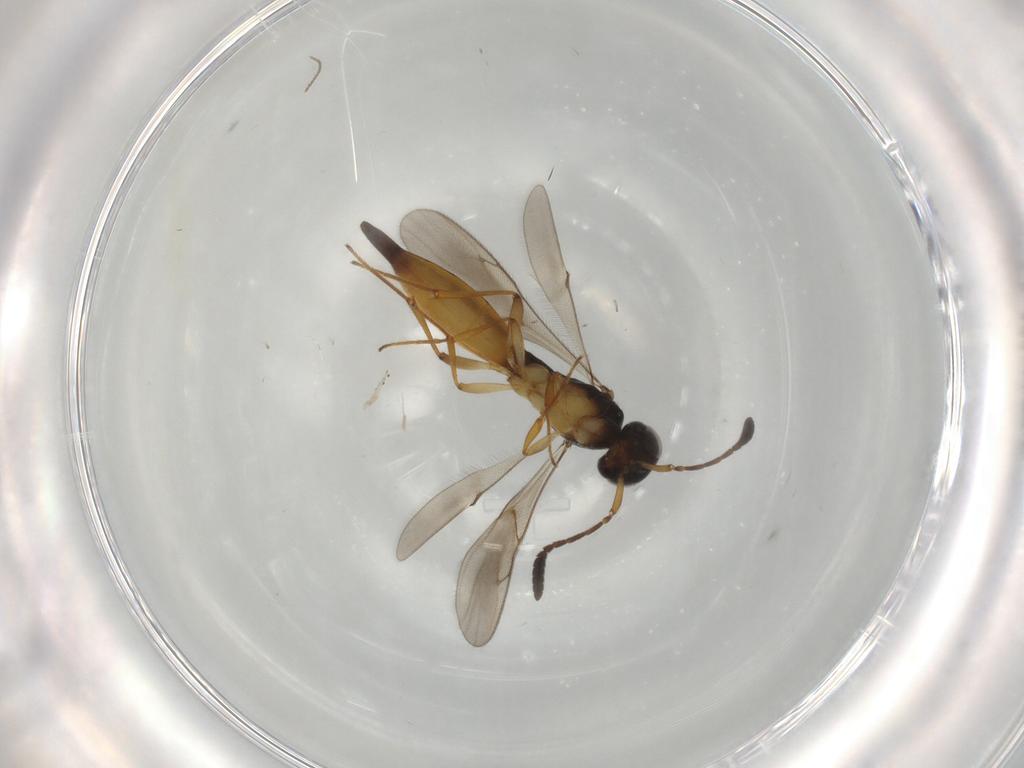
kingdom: Animalia
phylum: Arthropoda
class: Insecta
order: Hymenoptera
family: Scelionidae
